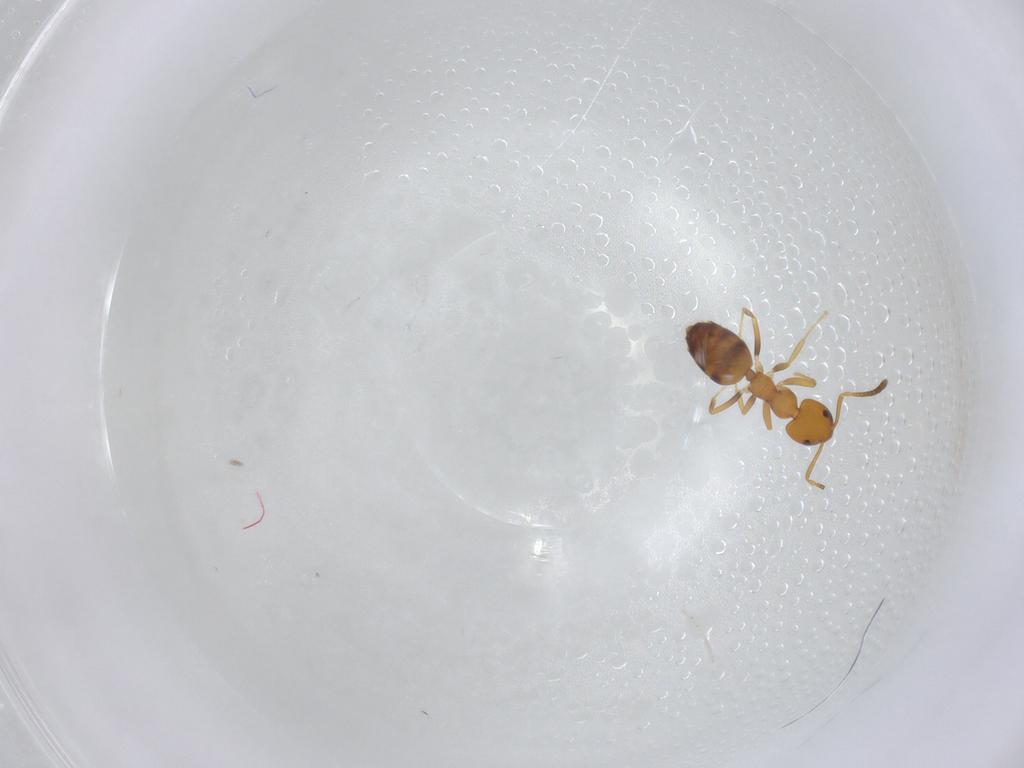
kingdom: Animalia
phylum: Arthropoda
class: Insecta
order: Hymenoptera
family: Formicidae
